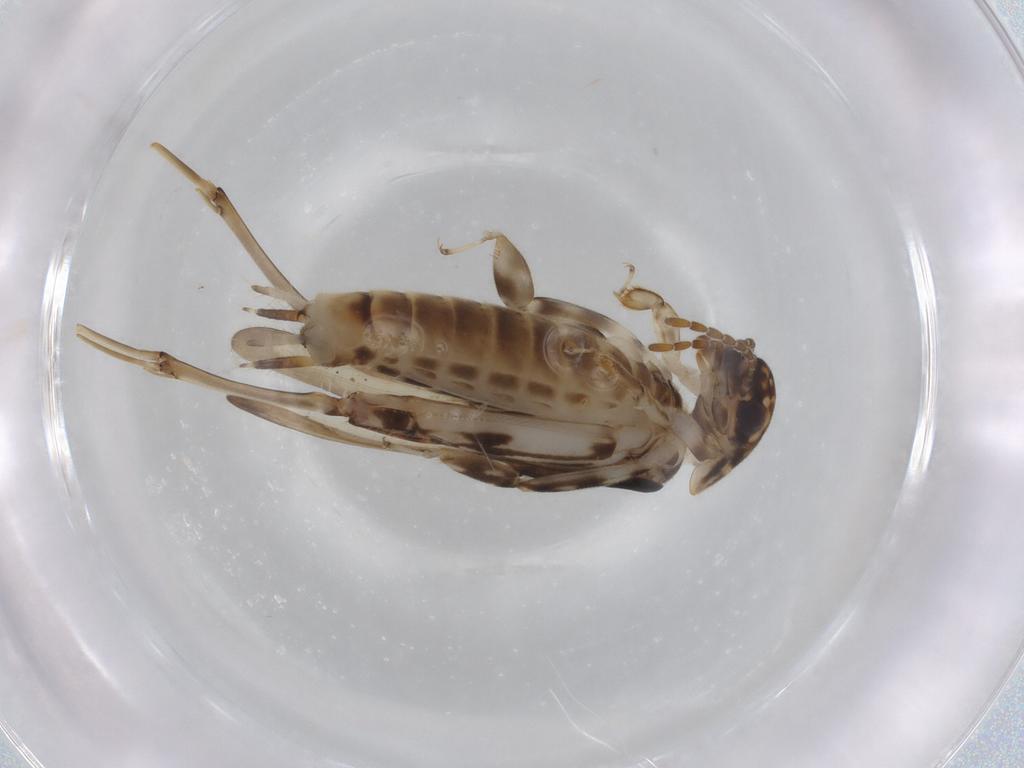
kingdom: Animalia
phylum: Arthropoda
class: Insecta
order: Orthoptera
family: Tridactylidae
